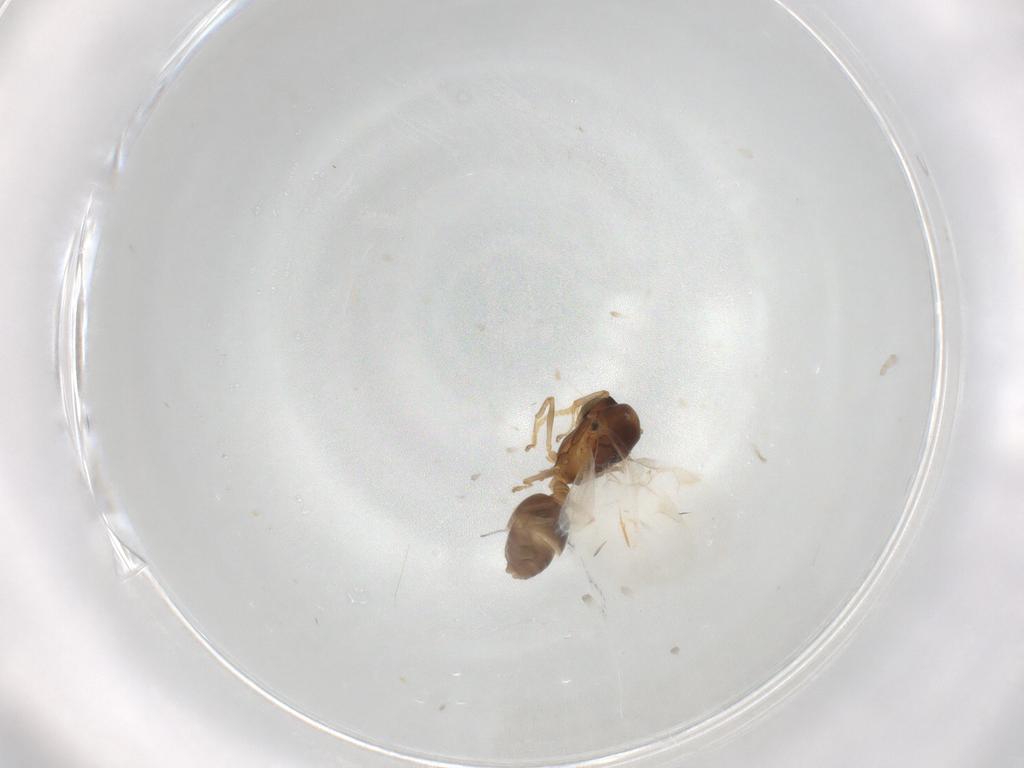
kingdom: Animalia
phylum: Arthropoda
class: Insecta
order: Hymenoptera
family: Formicidae
